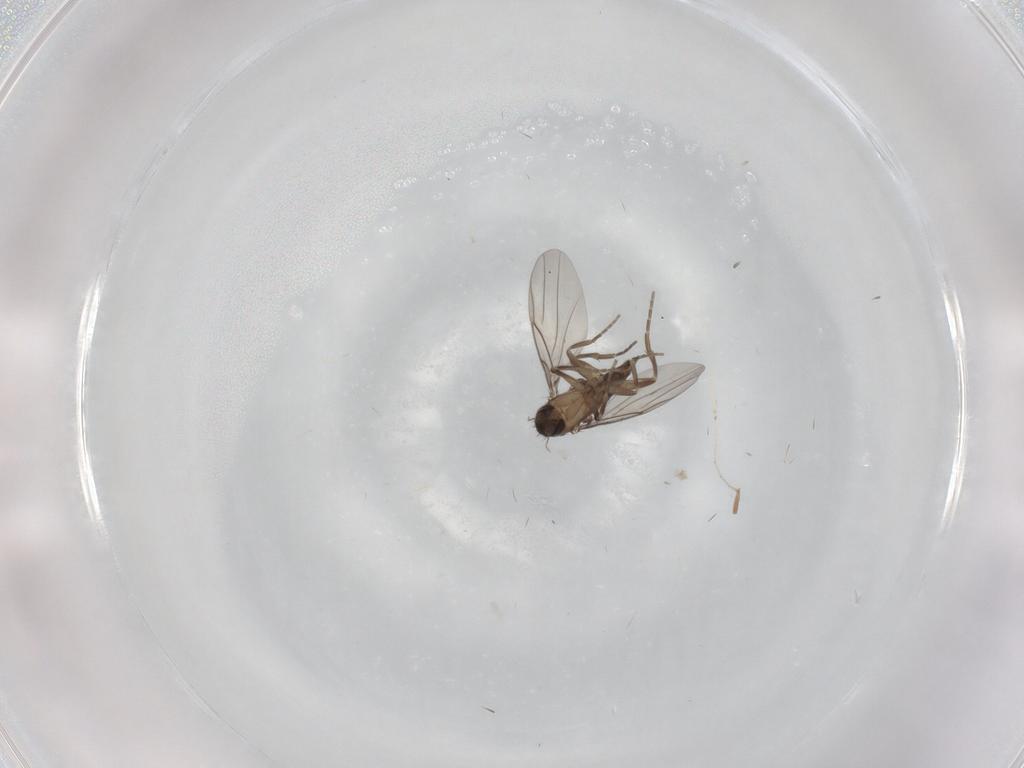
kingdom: Animalia
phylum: Arthropoda
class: Insecta
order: Diptera
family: Cecidomyiidae
